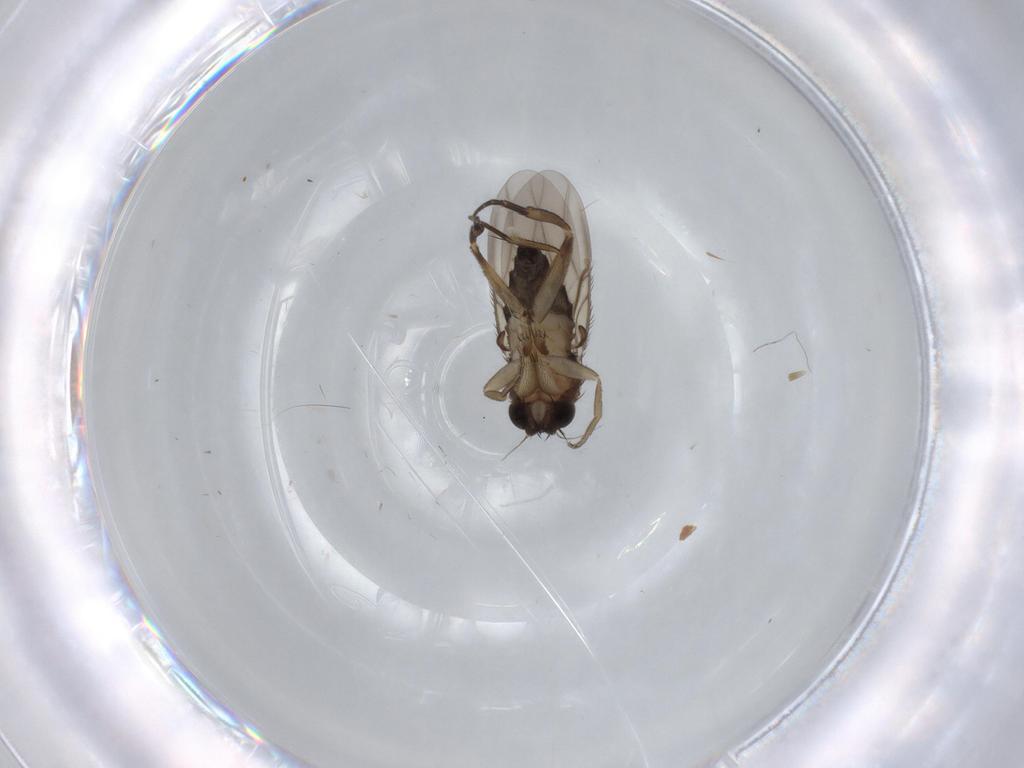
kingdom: Animalia
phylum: Arthropoda
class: Insecta
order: Diptera
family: Phoridae
